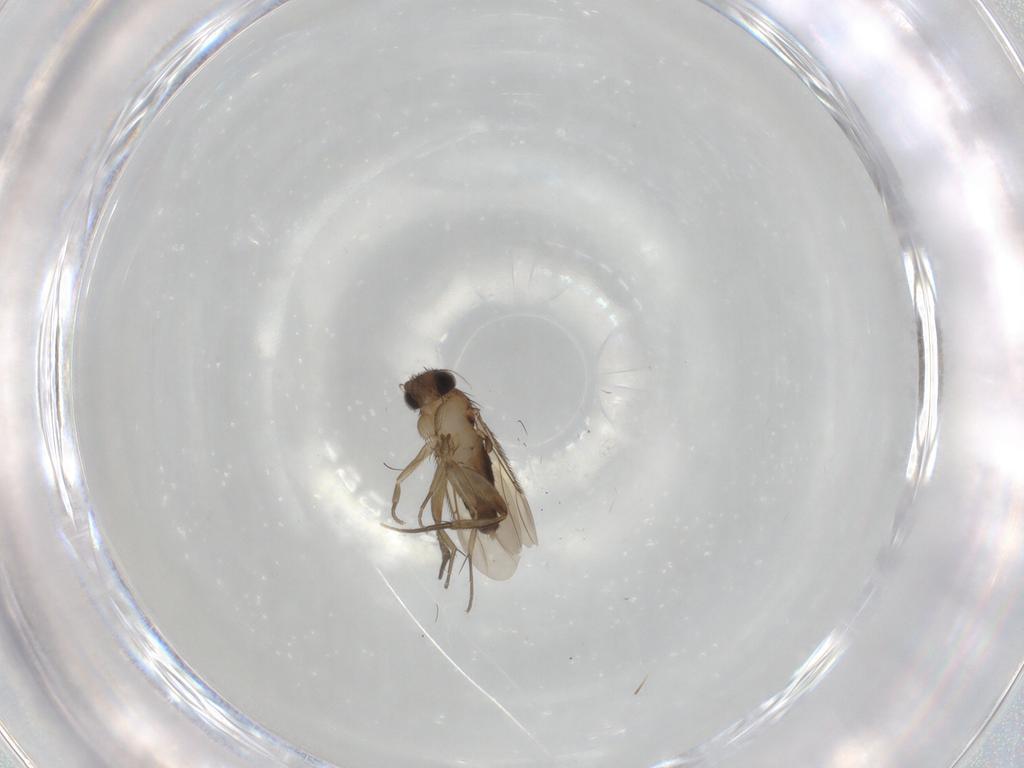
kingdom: Animalia
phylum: Arthropoda
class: Insecta
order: Diptera
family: Phoridae
